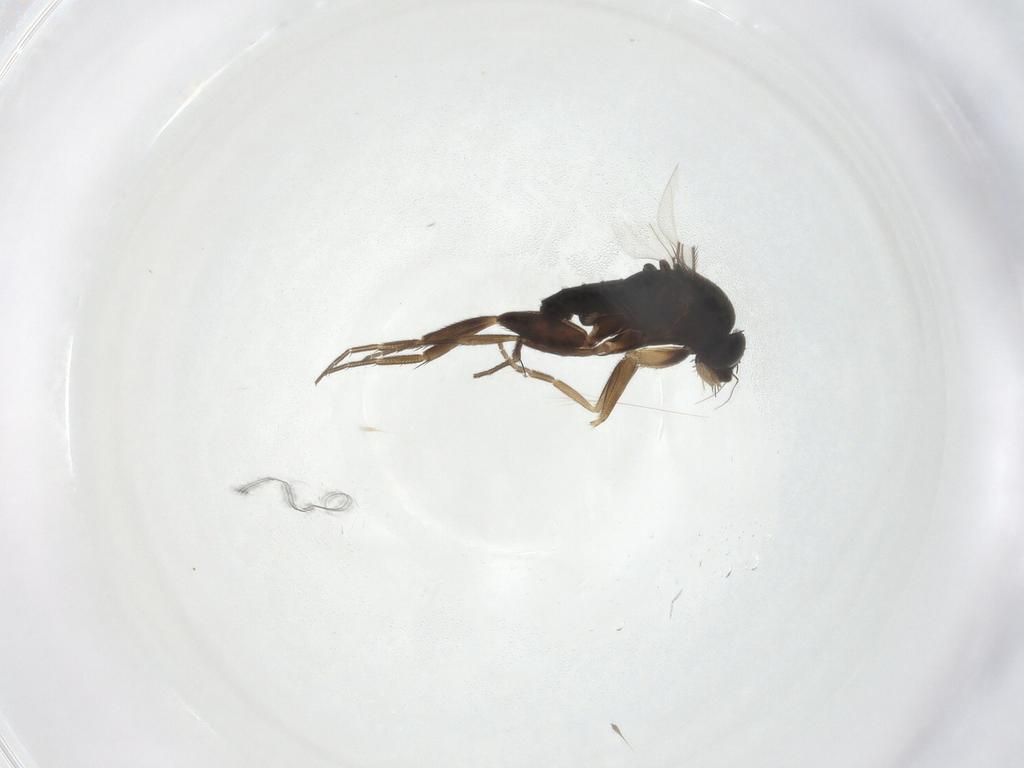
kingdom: Animalia
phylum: Arthropoda
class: Insecta
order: Diptera
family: Phoridae
